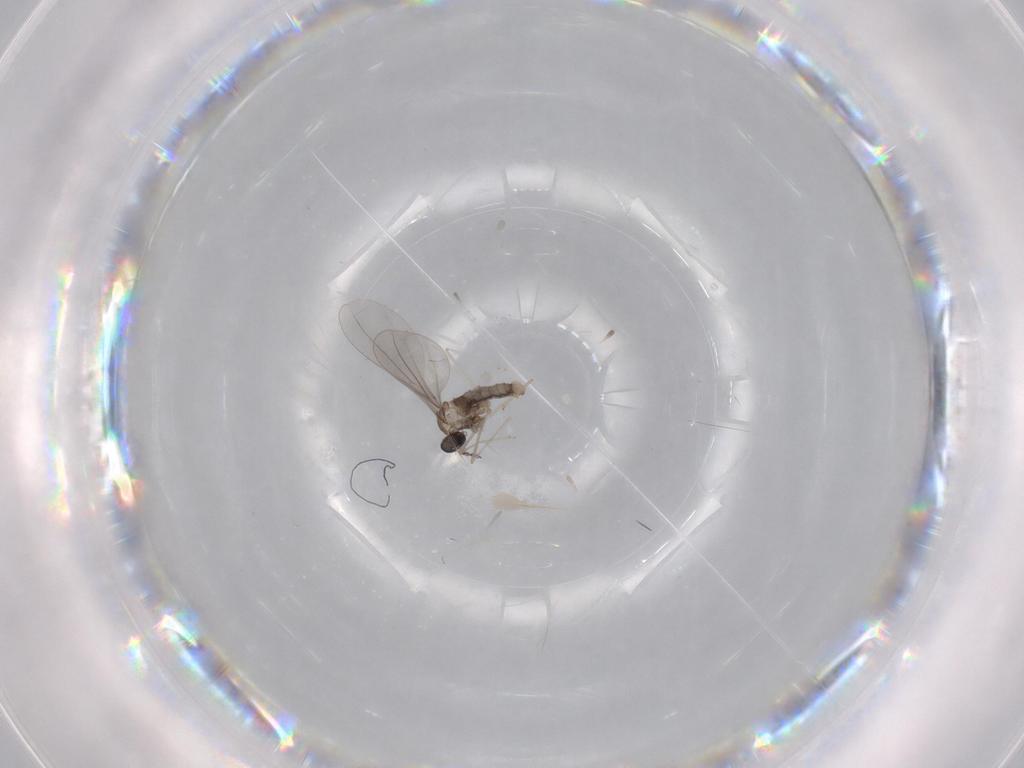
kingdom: Animalia
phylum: Arthropoda
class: Insecta
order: Diptera
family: Cecidomyiidae
